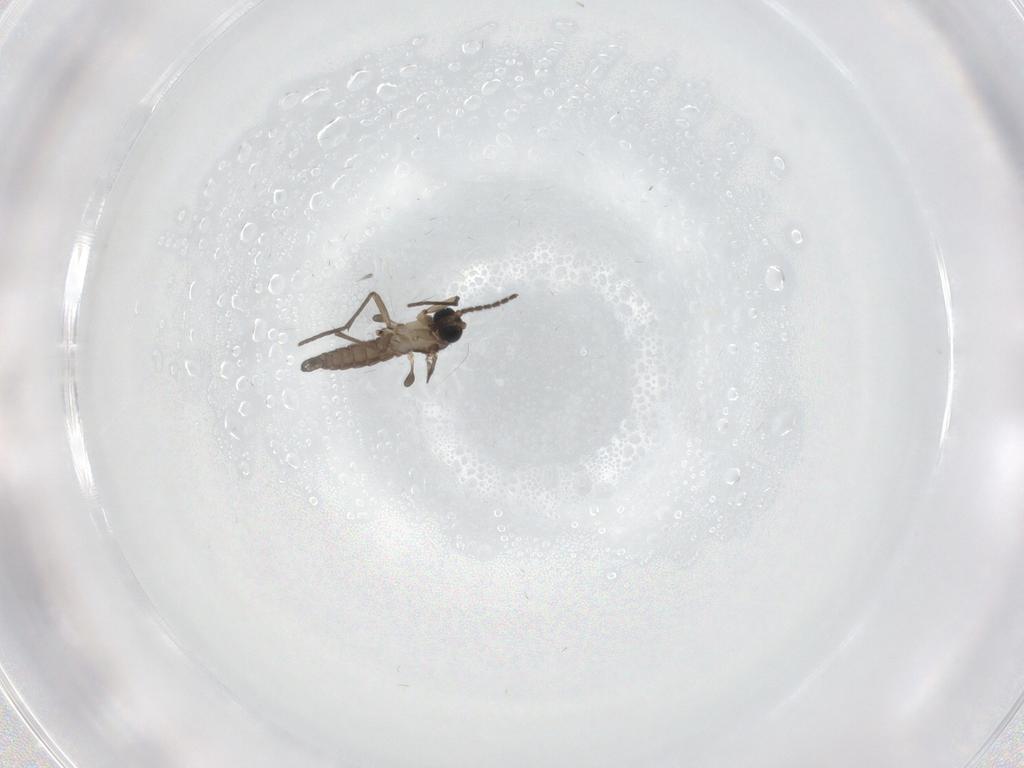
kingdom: Animalia
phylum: Arthropoda
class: Insecta
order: Diptera
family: Sciaridae
